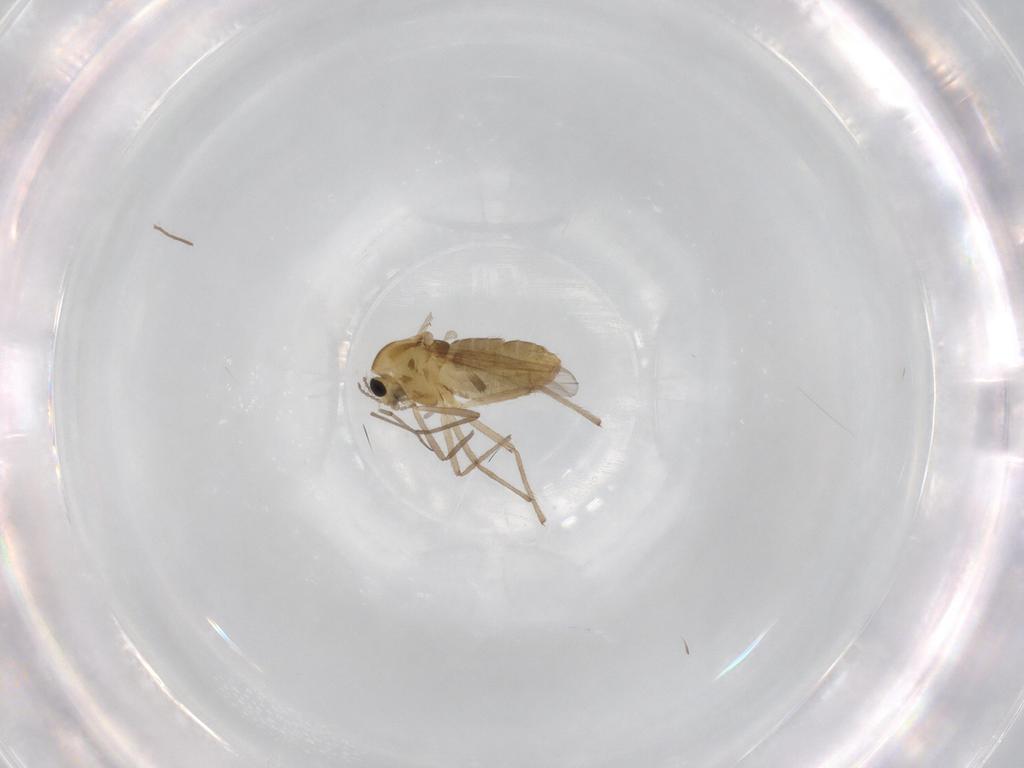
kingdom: Animalia
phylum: Arthropoda
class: Insecta
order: Diptera
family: Chironomidae
